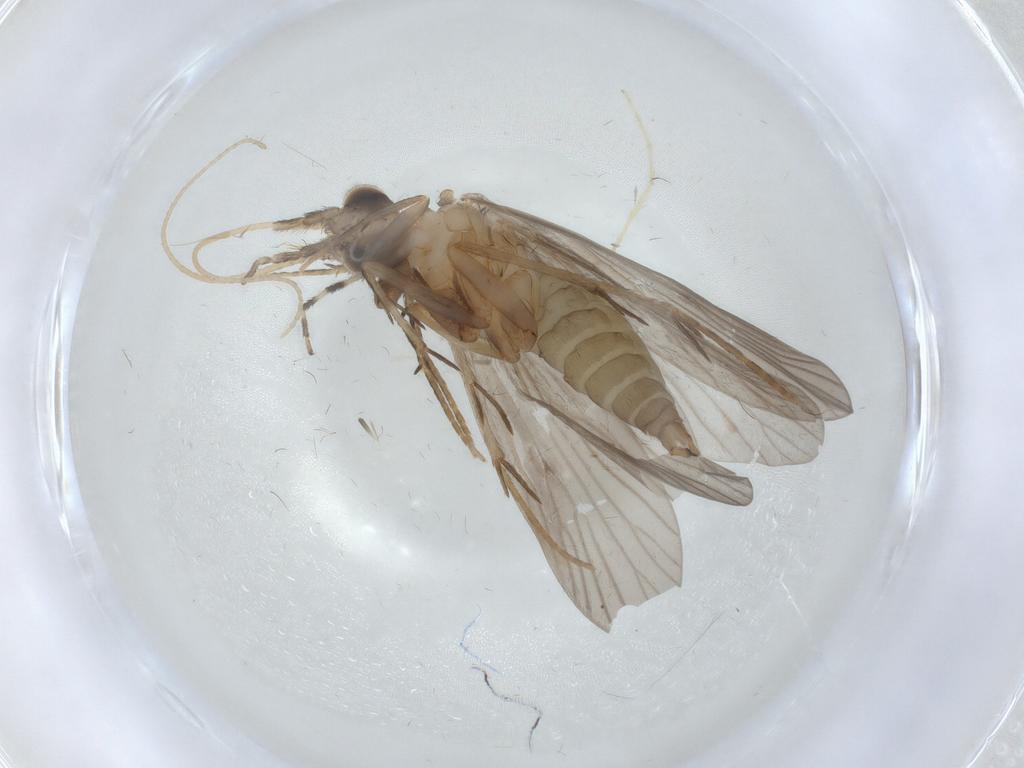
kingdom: Animalia
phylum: Arthropoda
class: Insecta
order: Trichoptera
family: Philopotamidae
